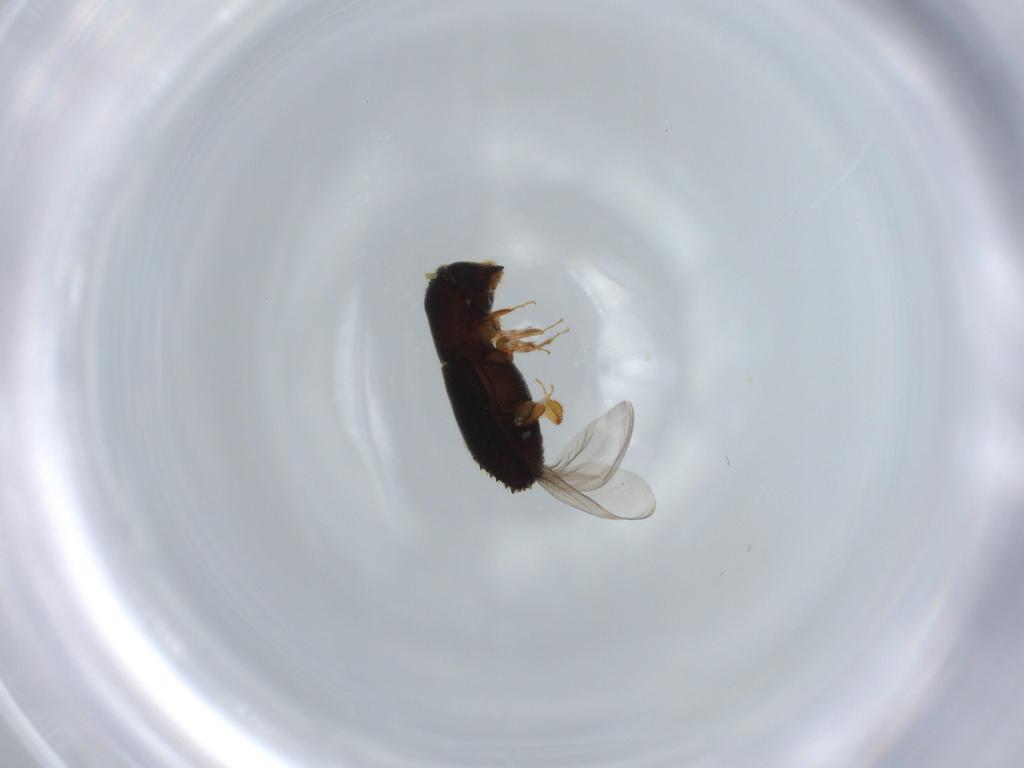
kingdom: Animalia
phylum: Arthropoda
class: Insecta
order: Coleoptera
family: Curculionidae
